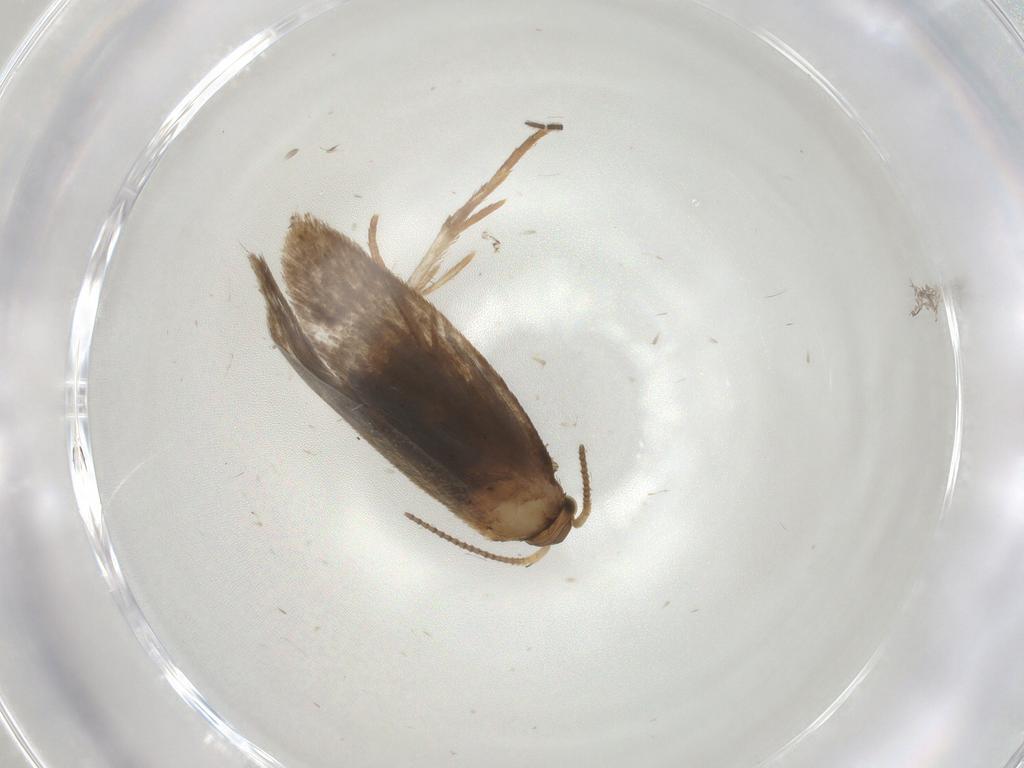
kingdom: Animalia
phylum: Arthropoda
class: Insecta
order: Lepidoptera
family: Dryadaulidae
